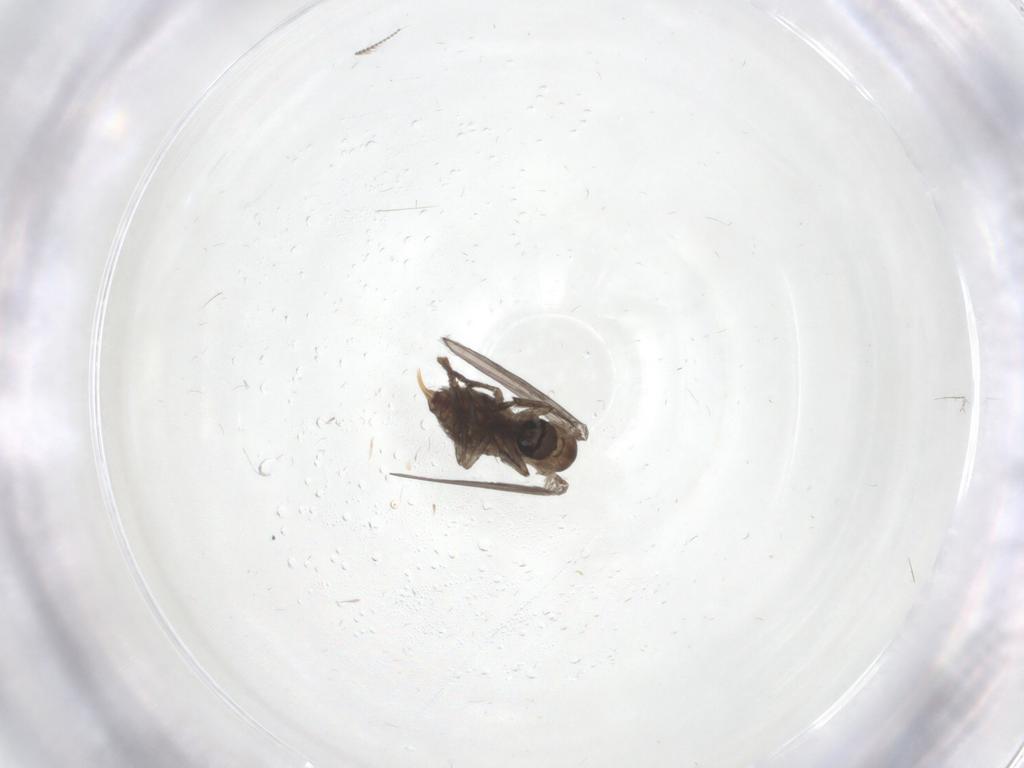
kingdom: Animalia
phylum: Arthropoda
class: Insecta
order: Diptera
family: Psychodidae
